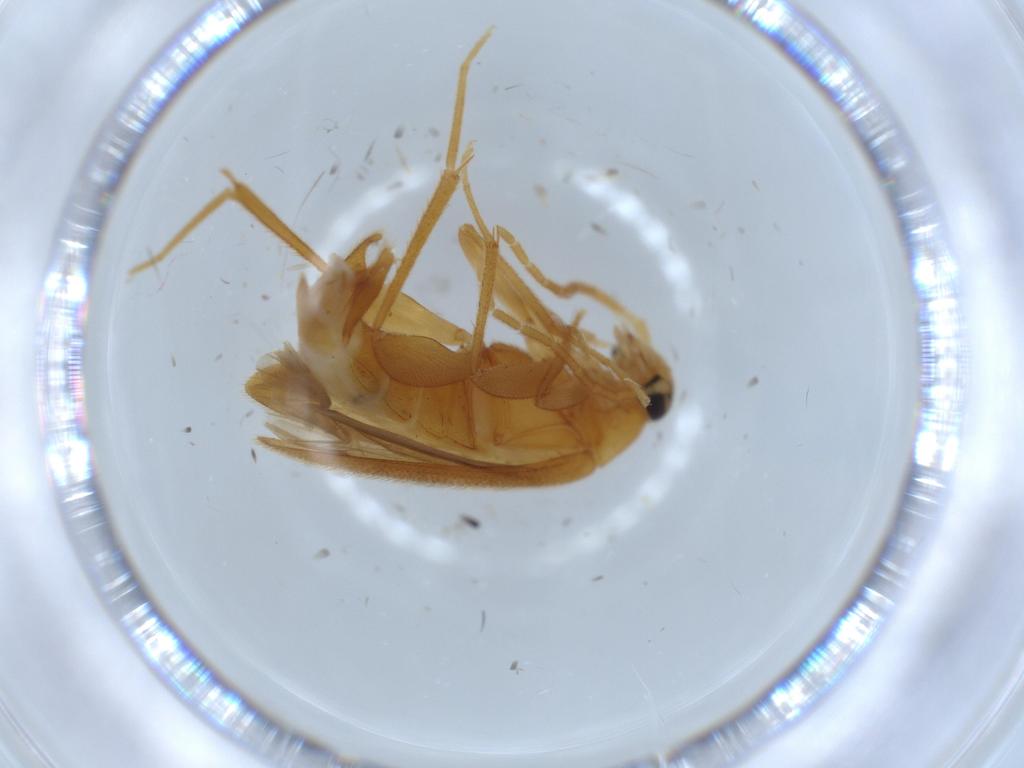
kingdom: Animalia
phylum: Arthropoda
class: Insecta
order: Coleoptera
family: Scraptiidae
